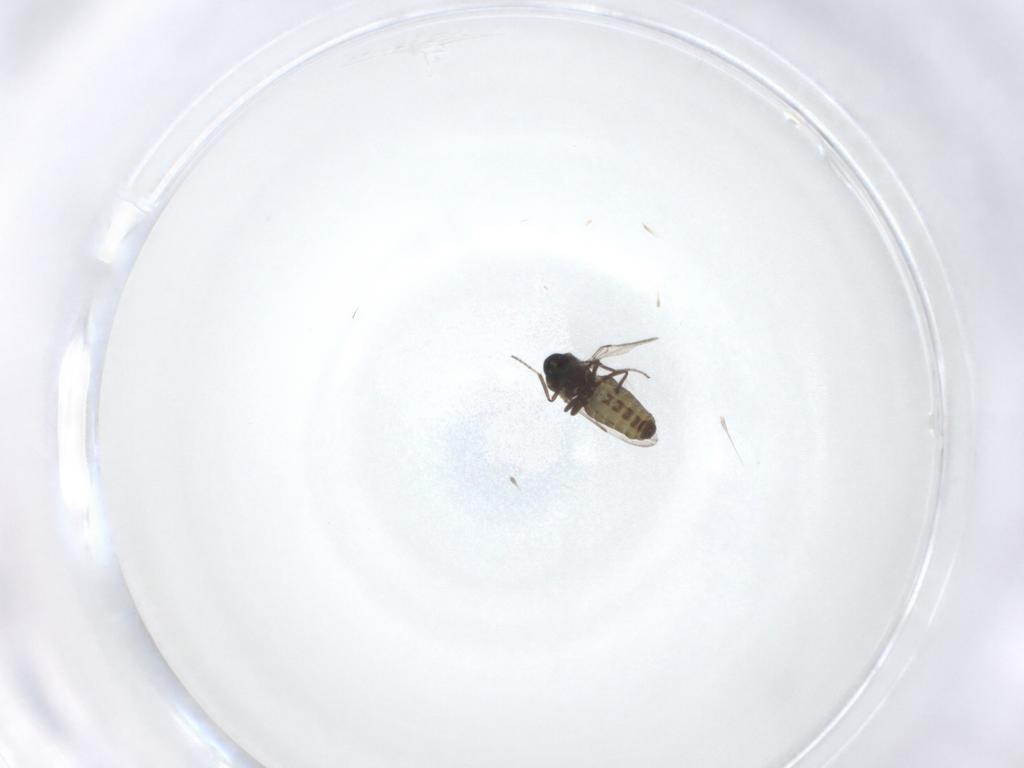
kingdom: Animalia
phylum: Arthropoda
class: Insecta
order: Diptera
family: Ceratopogonidae
